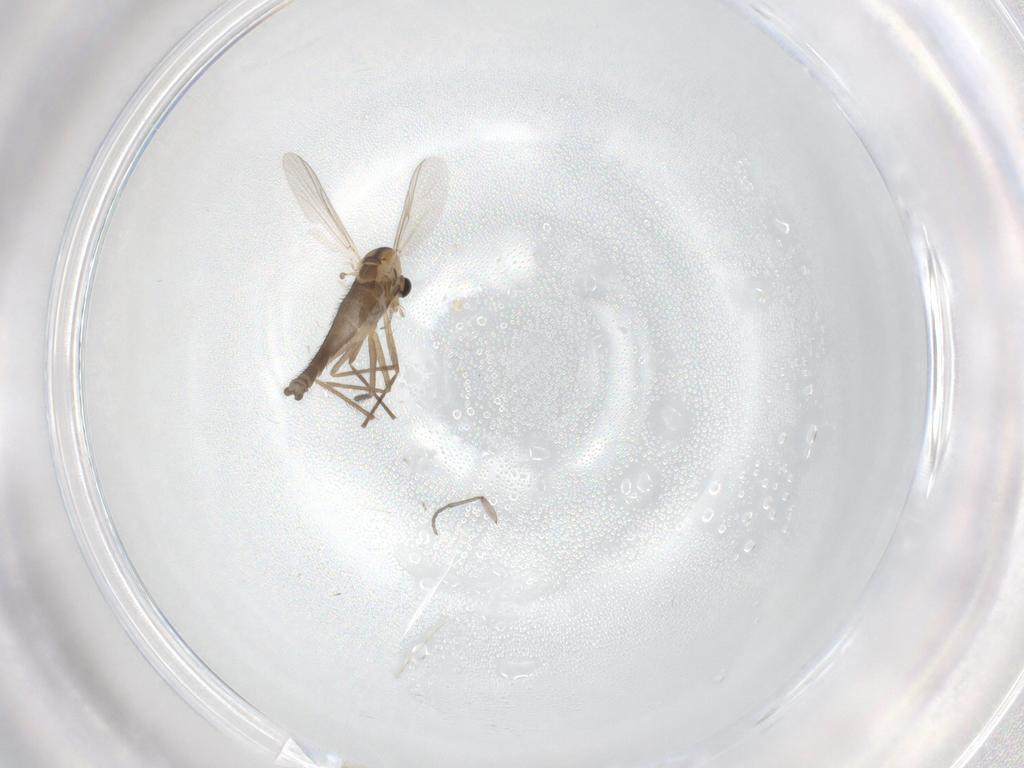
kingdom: Animalia
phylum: Arthropoda
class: Insecta
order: Diptera
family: Chironomidae
